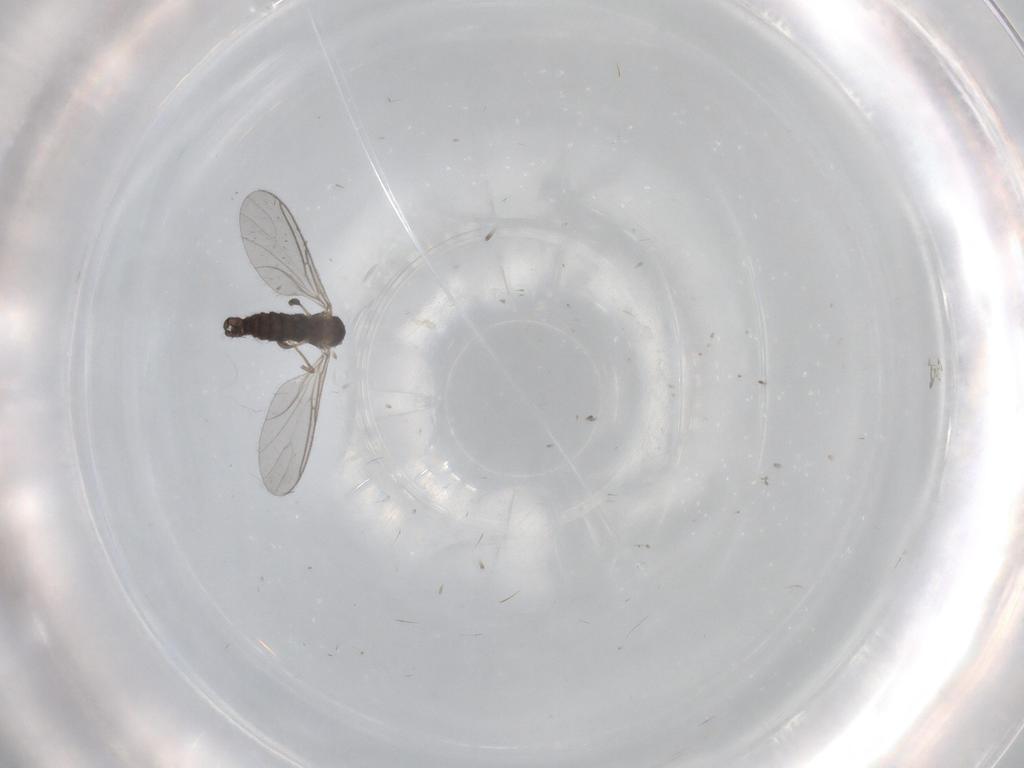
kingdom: Animalia
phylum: Arthropoda
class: Insecta
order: Diptera
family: Sciaridae
